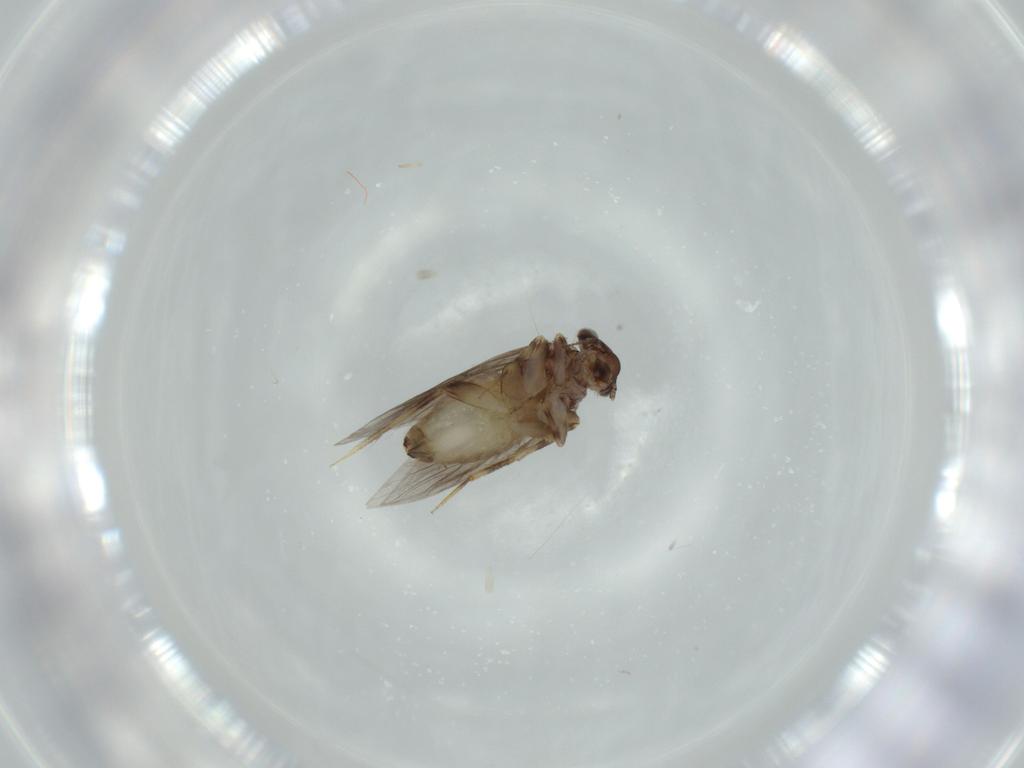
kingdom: Animalia
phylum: Arthropoda
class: Insecta
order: Psocodea
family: Lepidopsocidae
